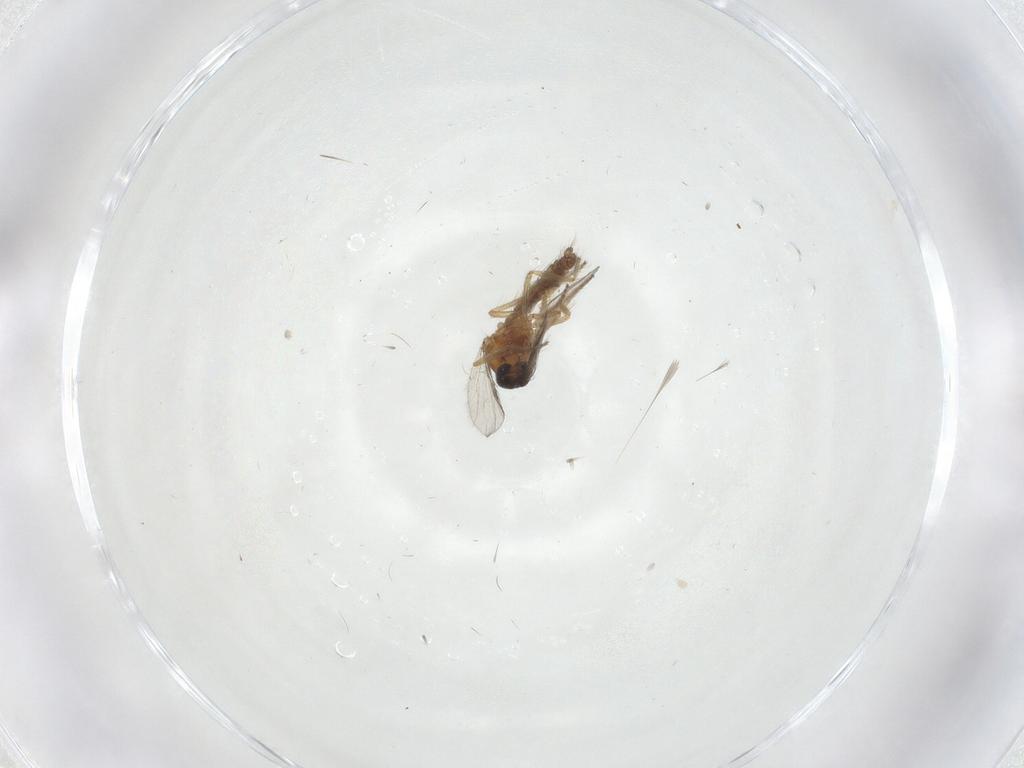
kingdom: Animalia
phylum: Arthropoda
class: Insecta
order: Diptera
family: Ceratopogonidae
